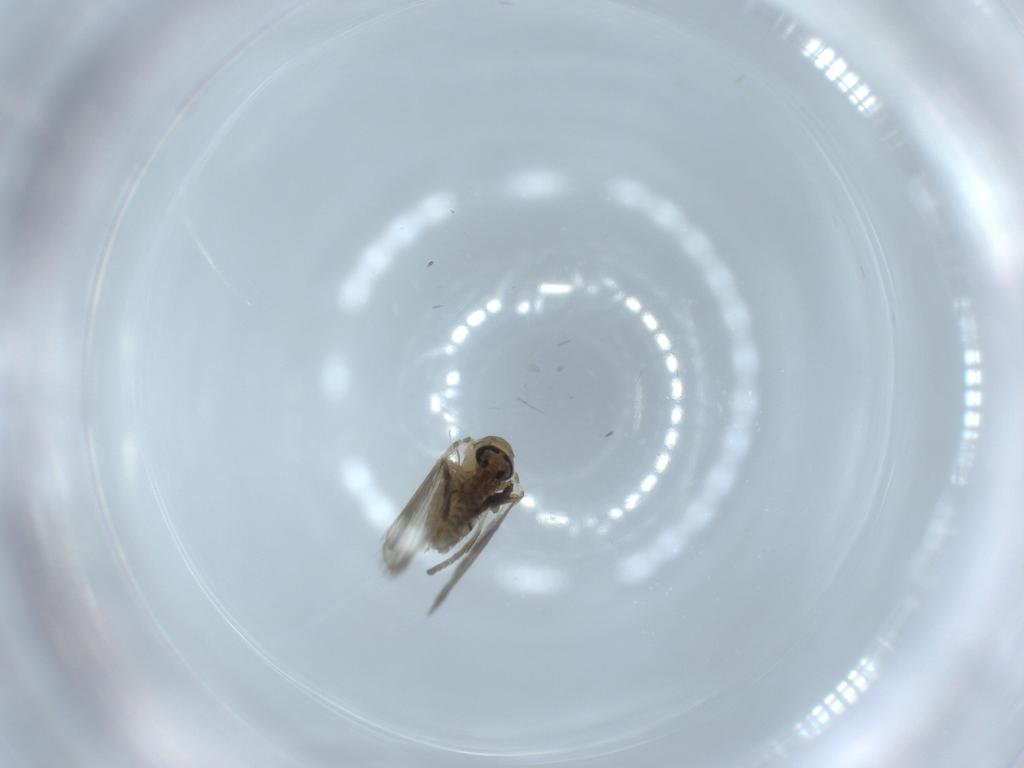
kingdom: Animalia
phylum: Arthropoda
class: Insecta
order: Diptera
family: Psychodidae
